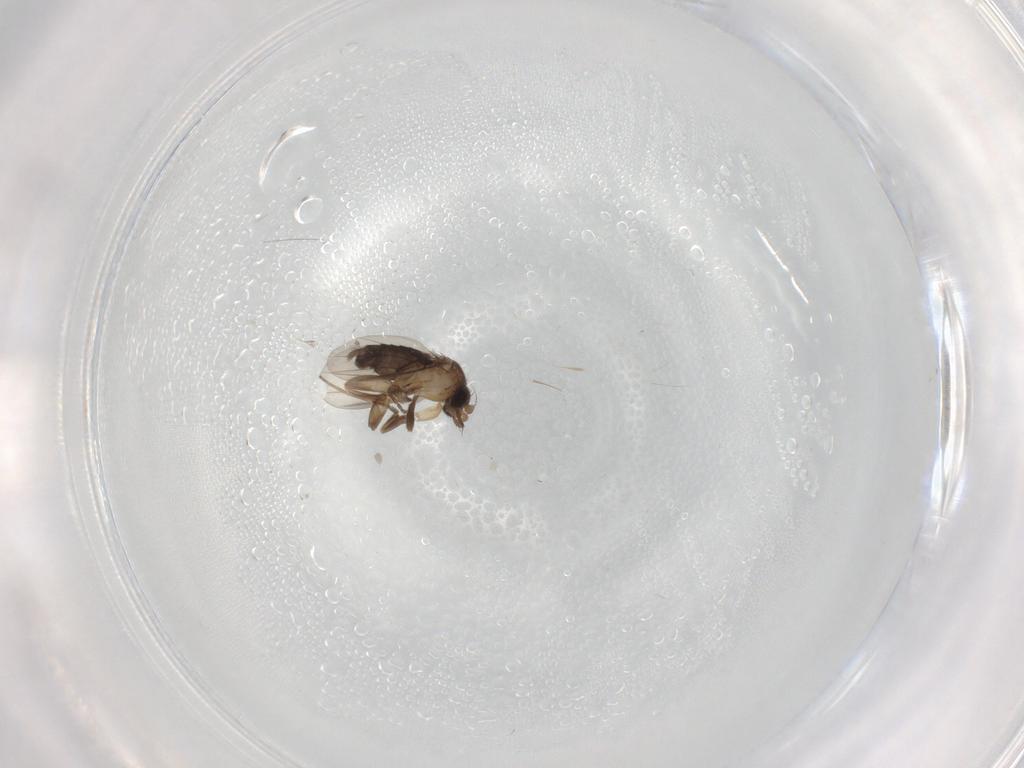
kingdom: Animalia
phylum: Arthropoda
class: Insecta
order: Diptera
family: Phoridae
